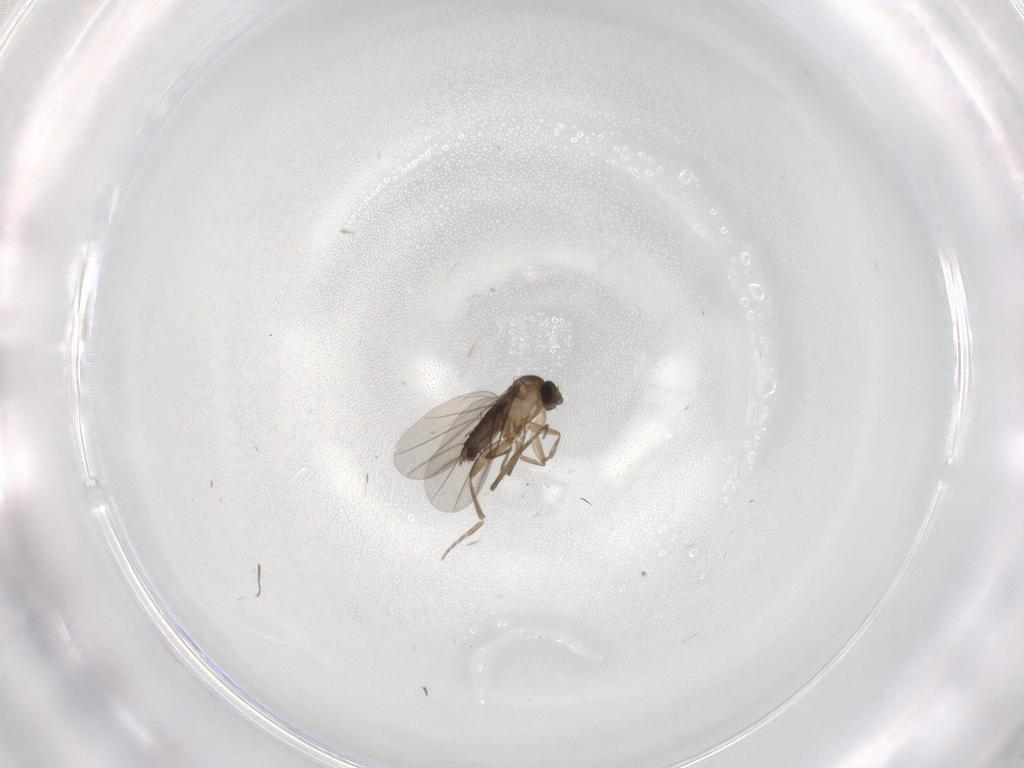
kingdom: Animalia
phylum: Arthropoda
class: Insecta
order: Diptera
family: Phoridae
